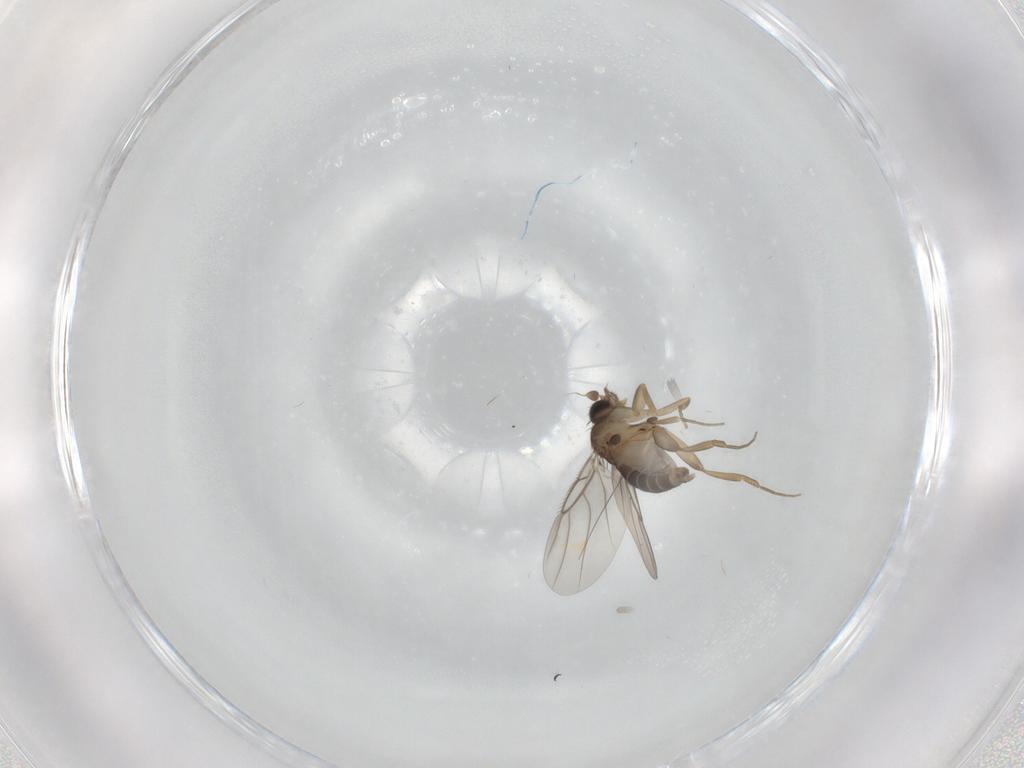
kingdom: Animalia
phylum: Arthropoda
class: Insecta
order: Diptera
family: Phoridae
